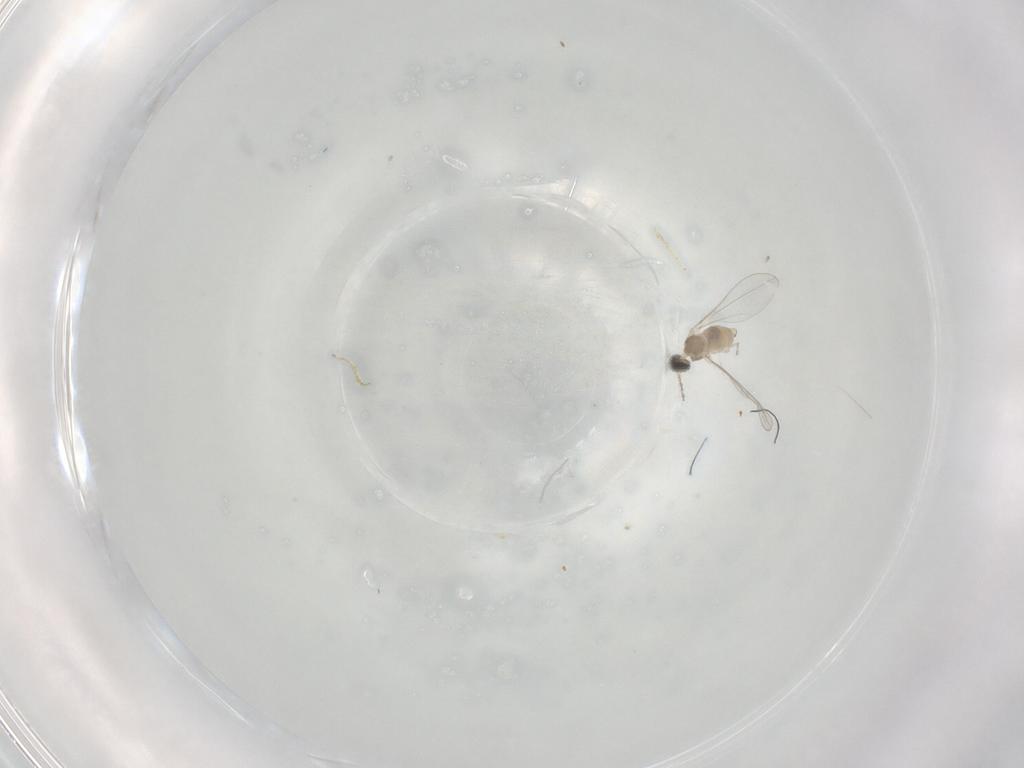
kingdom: Animalia
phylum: Arthropoda
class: Insecta
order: Diptera
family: Cecidomyiidae
